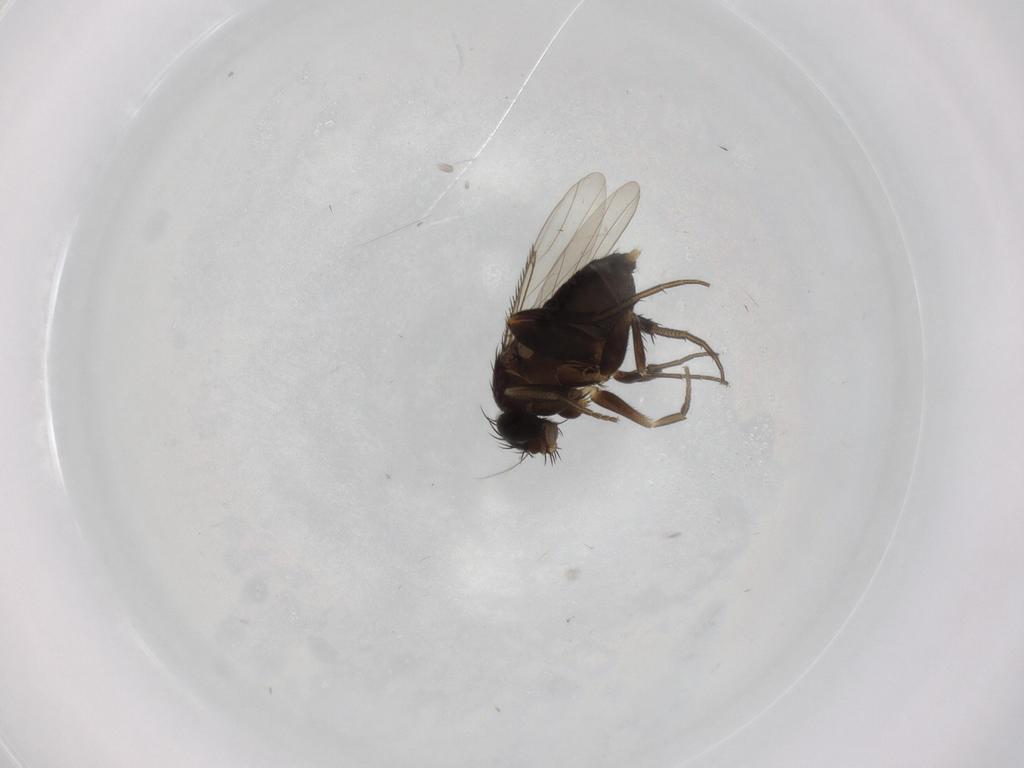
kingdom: Animalia
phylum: Arthropoda
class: Insecta
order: Diptera
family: Phoridae
